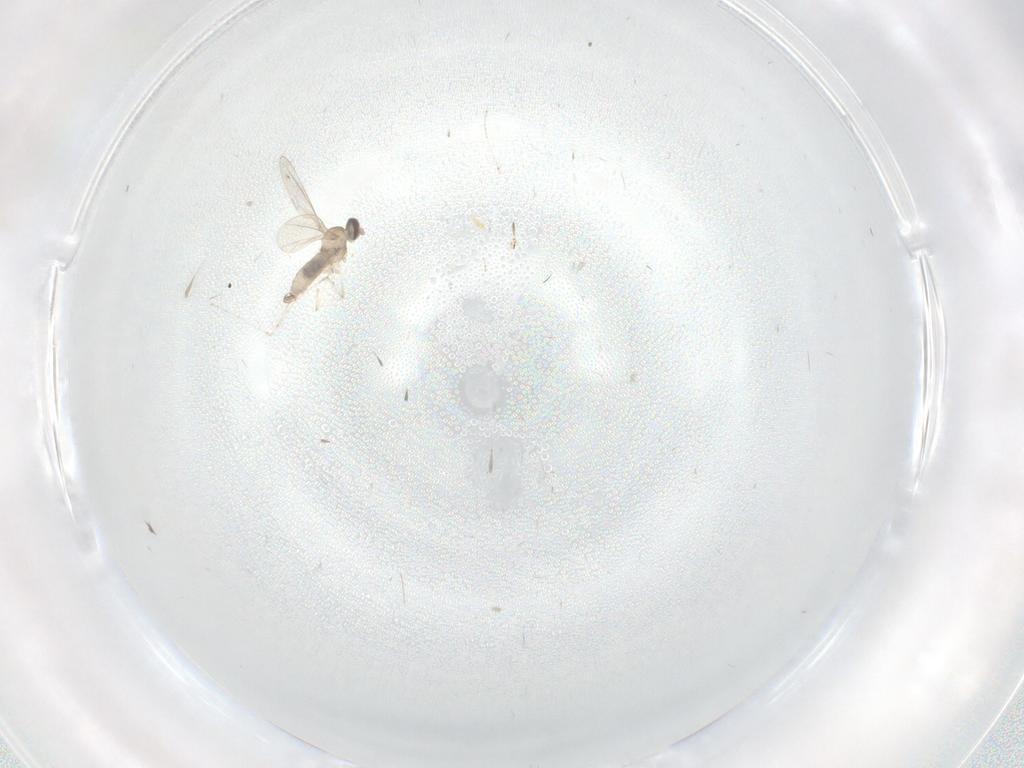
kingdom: Animalia
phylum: Arthropoda
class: Insecta
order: Diptera
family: Cecidomyiidae
